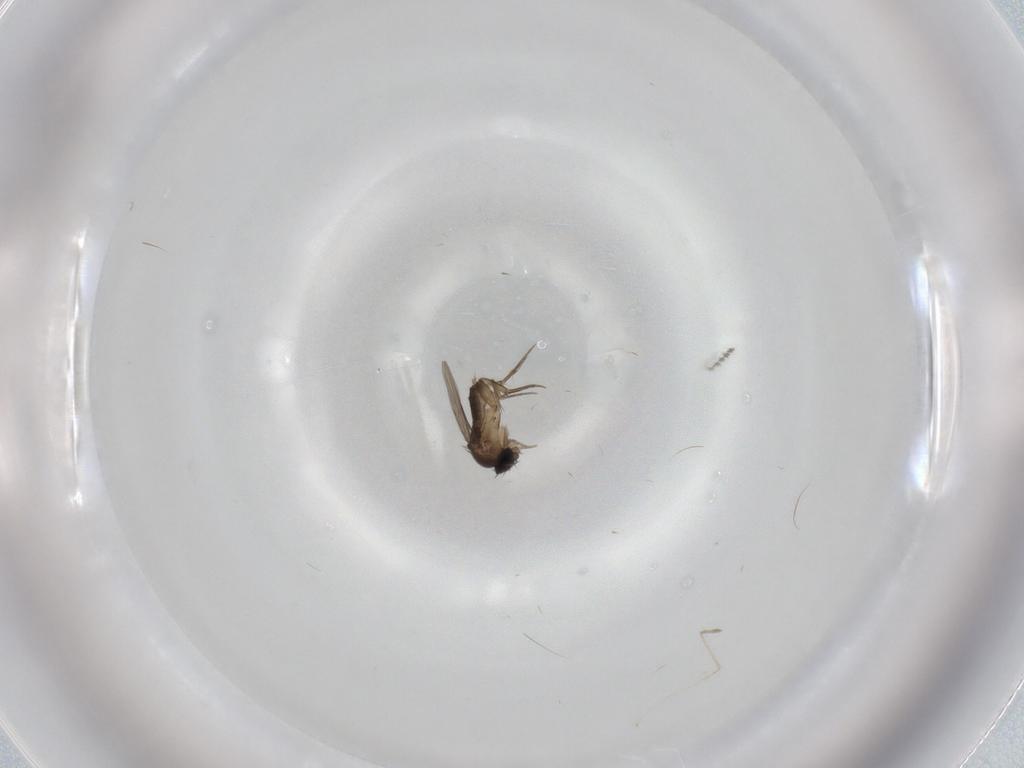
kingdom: Animalia
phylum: Arthropoda
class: Insecta
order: Diptera
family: Phoridae
